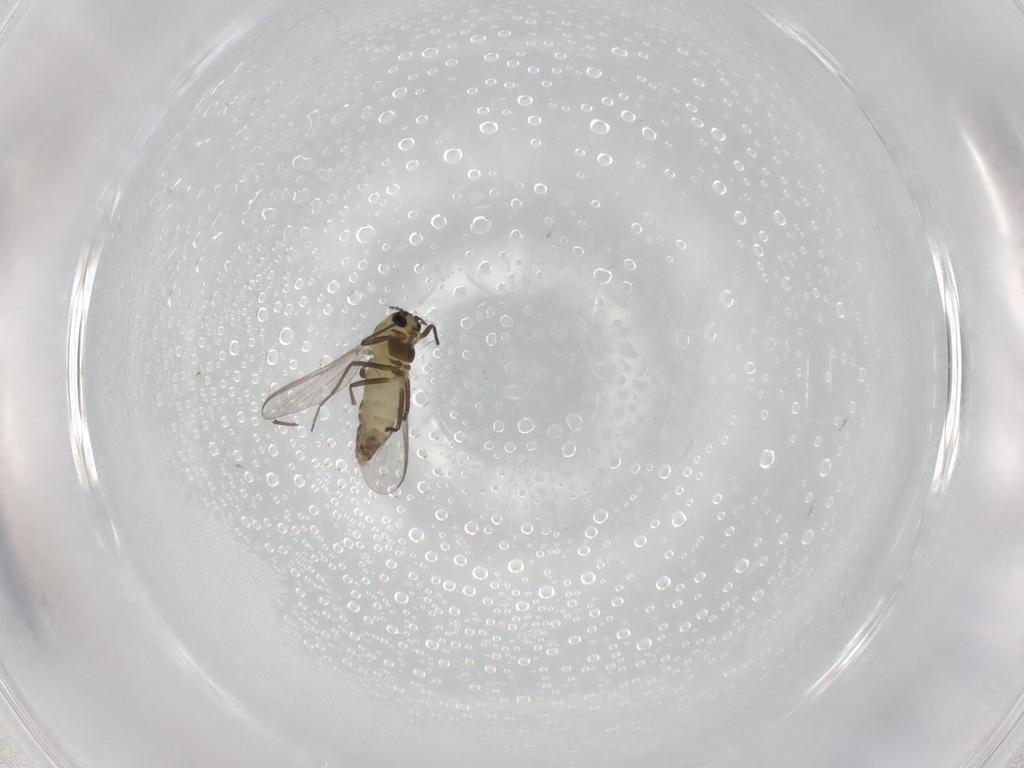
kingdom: Animalia
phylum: Arthropoda
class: Insecta
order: Diptera
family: Chironomidae
